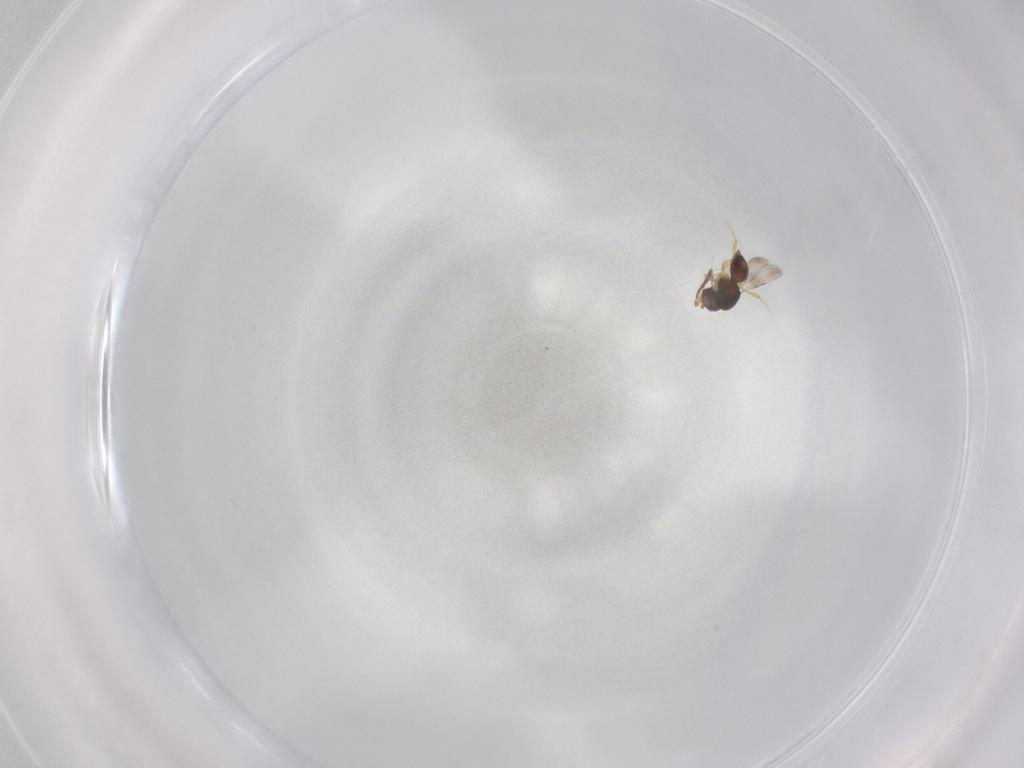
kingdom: Animalia
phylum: Arthropoda
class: Insecta
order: Hymenoptera
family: Ichneumonidae
